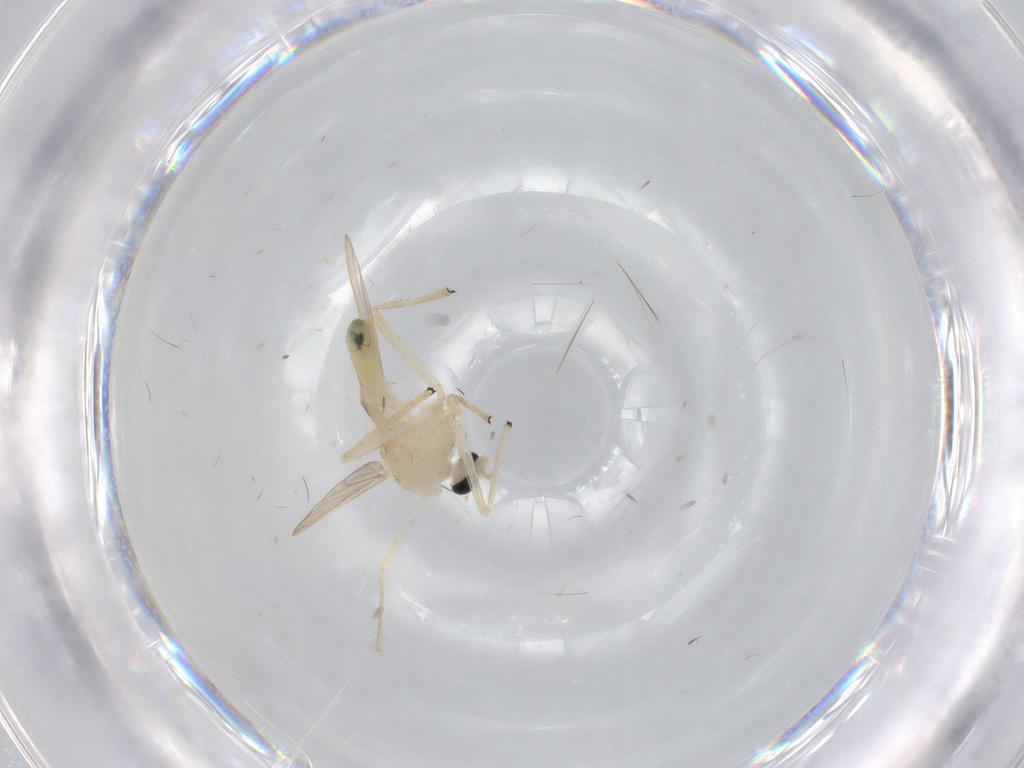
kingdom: Animalia
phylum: Arthropoda
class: Insecta
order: Diptera
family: Chironomidae
